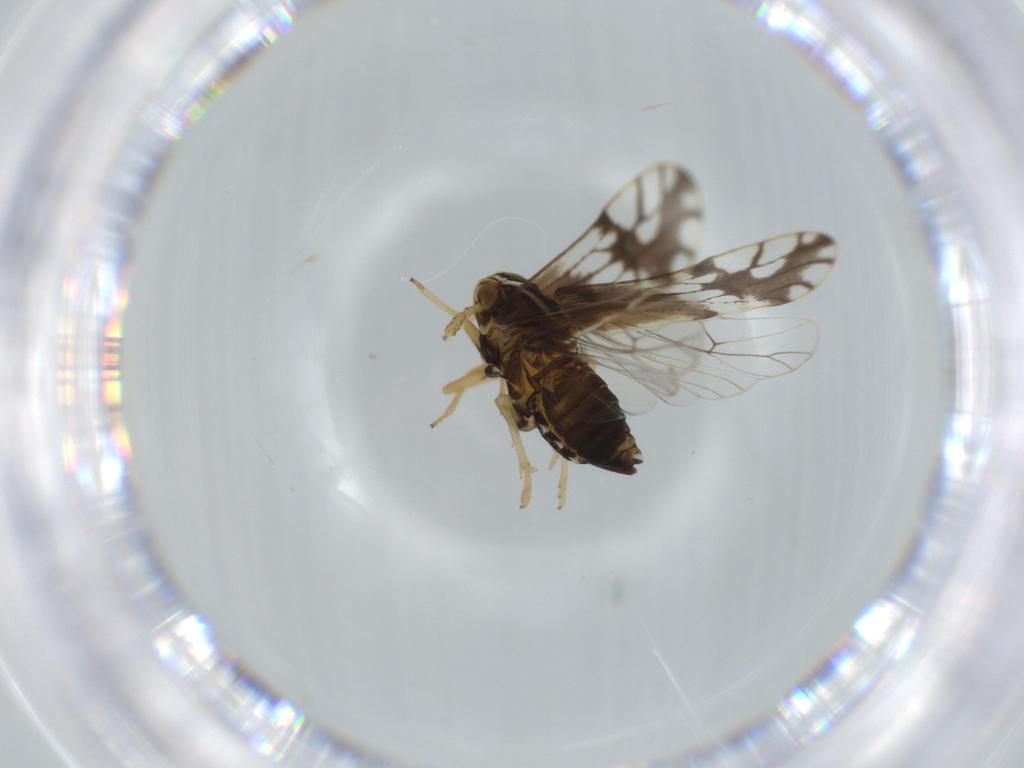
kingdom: Animalia
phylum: Arthropoda
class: Insecta
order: Hemiptera
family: Delphacidae
